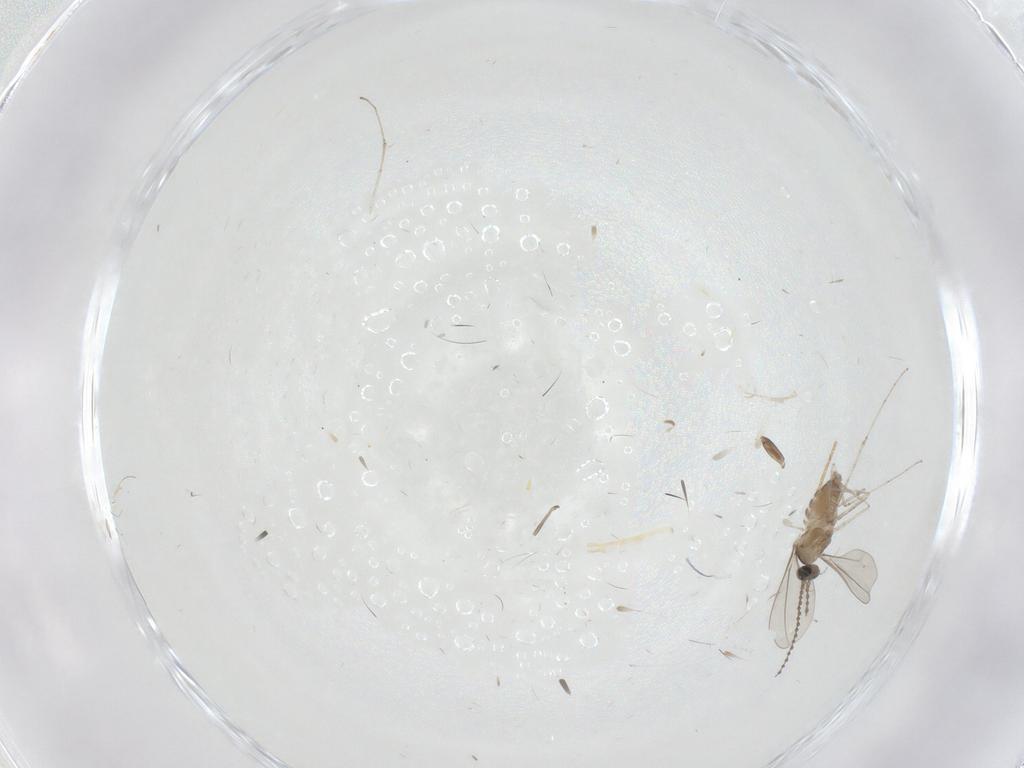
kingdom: Animalia
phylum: Arthropoda
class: Insecta
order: Diptera
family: Cecidomyiidae
